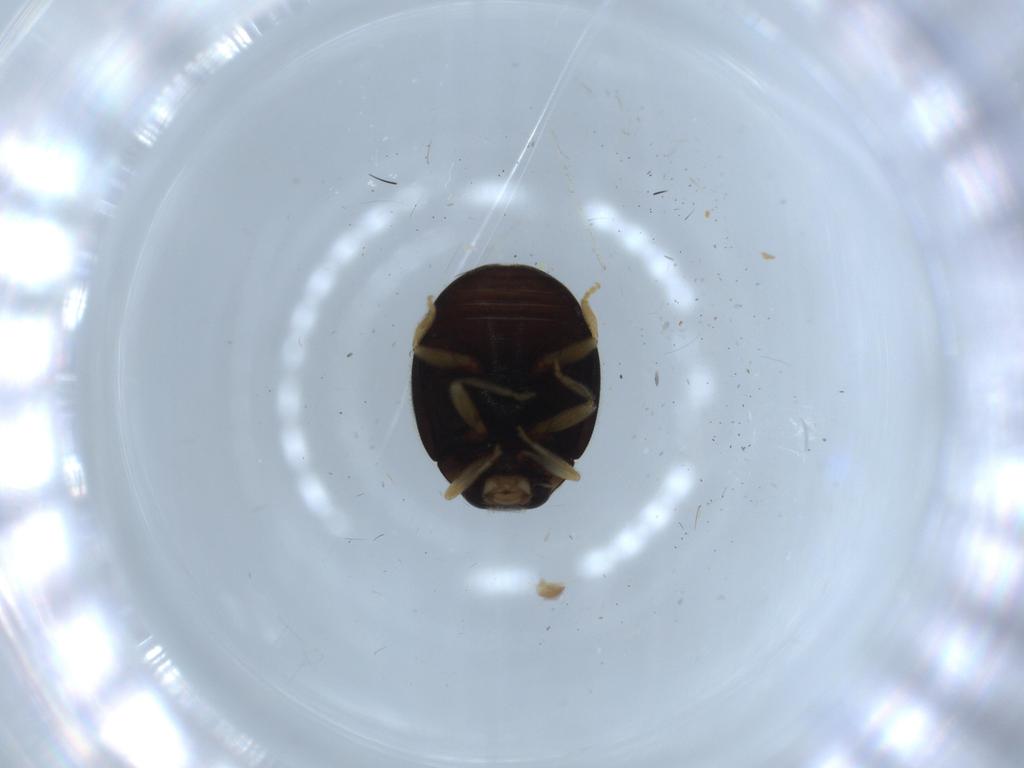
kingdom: Animalia
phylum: Arthropoda
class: Insecta
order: Coleoptera
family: Coccinellidae
